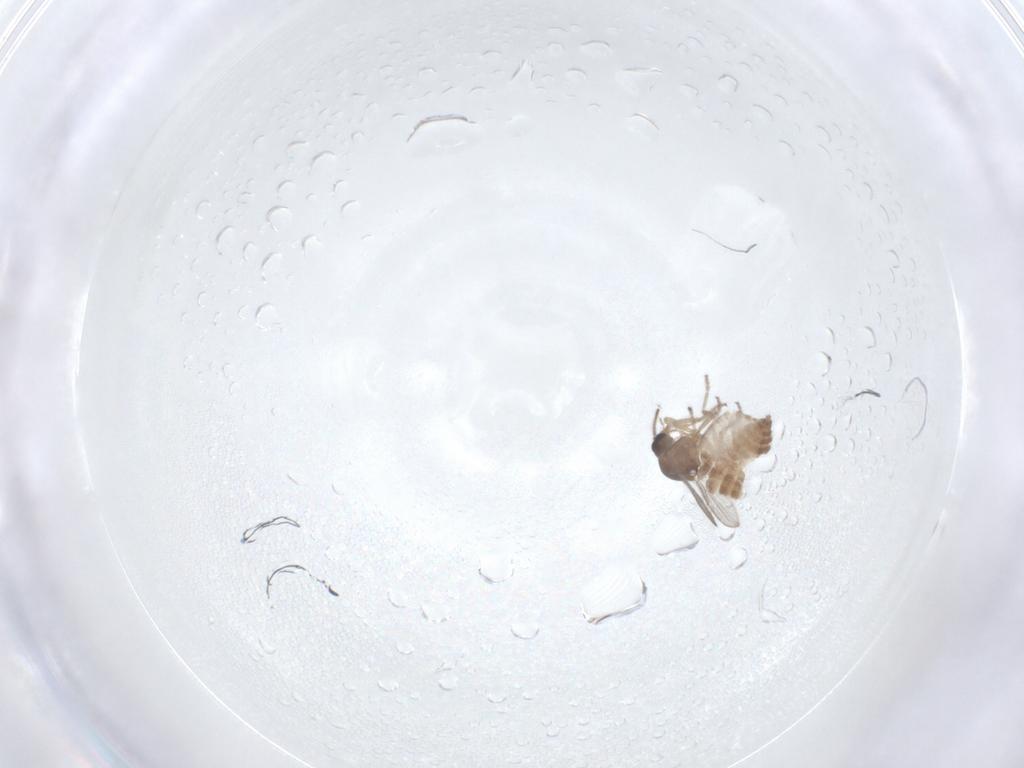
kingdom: Animalia
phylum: Arthropoda
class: Insecta
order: Diptera
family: Ceratopogonidae
